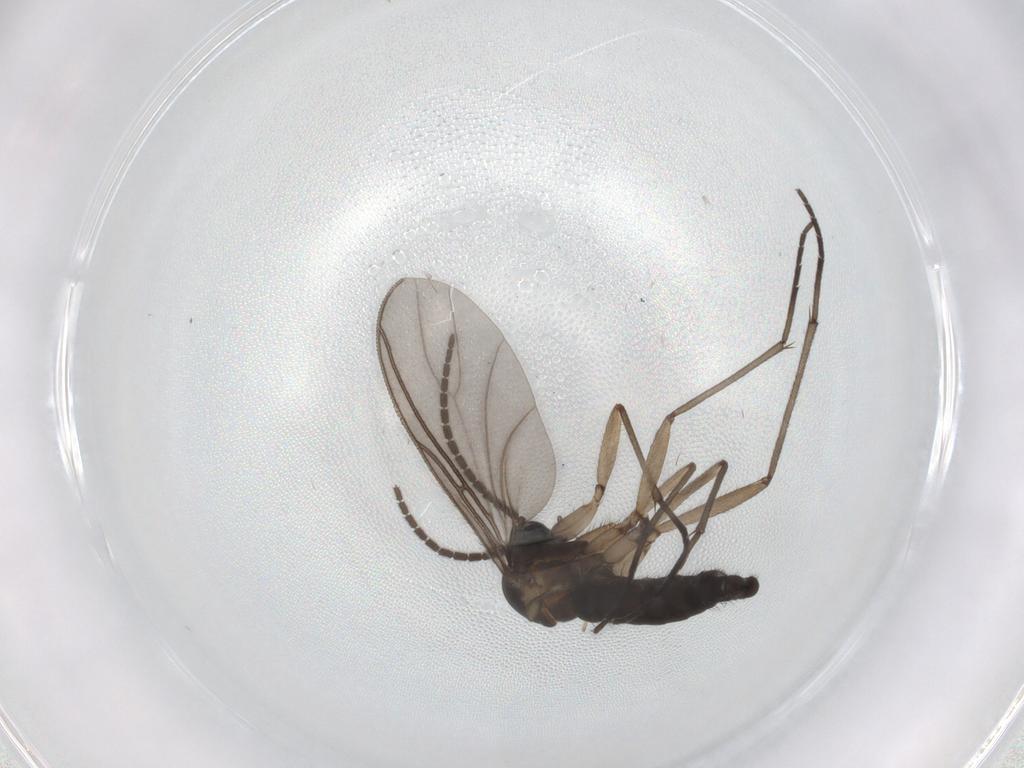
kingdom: Animalia
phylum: Arthropoda
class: Insecta
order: Diptera
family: Sciaridae
